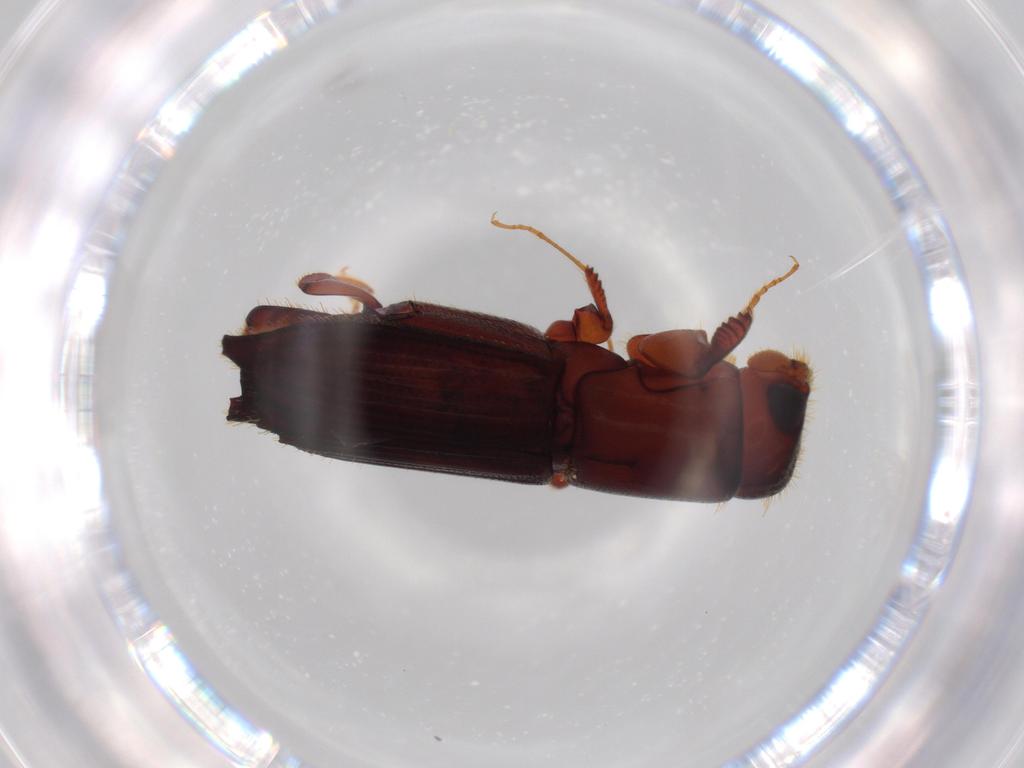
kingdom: Animalia
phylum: Arthropoda
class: Insecta
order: Coleoptera
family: Curculionidae
